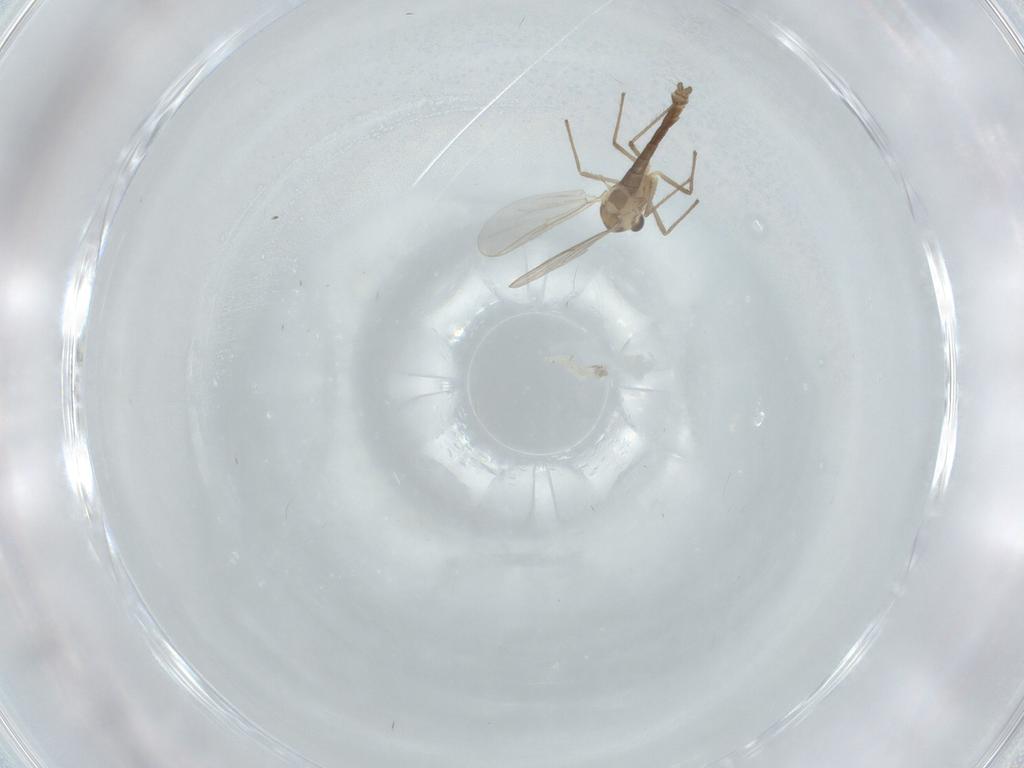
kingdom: Animalia
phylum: Arthropoda
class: Insecta
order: Diptera
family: Chironomidae
